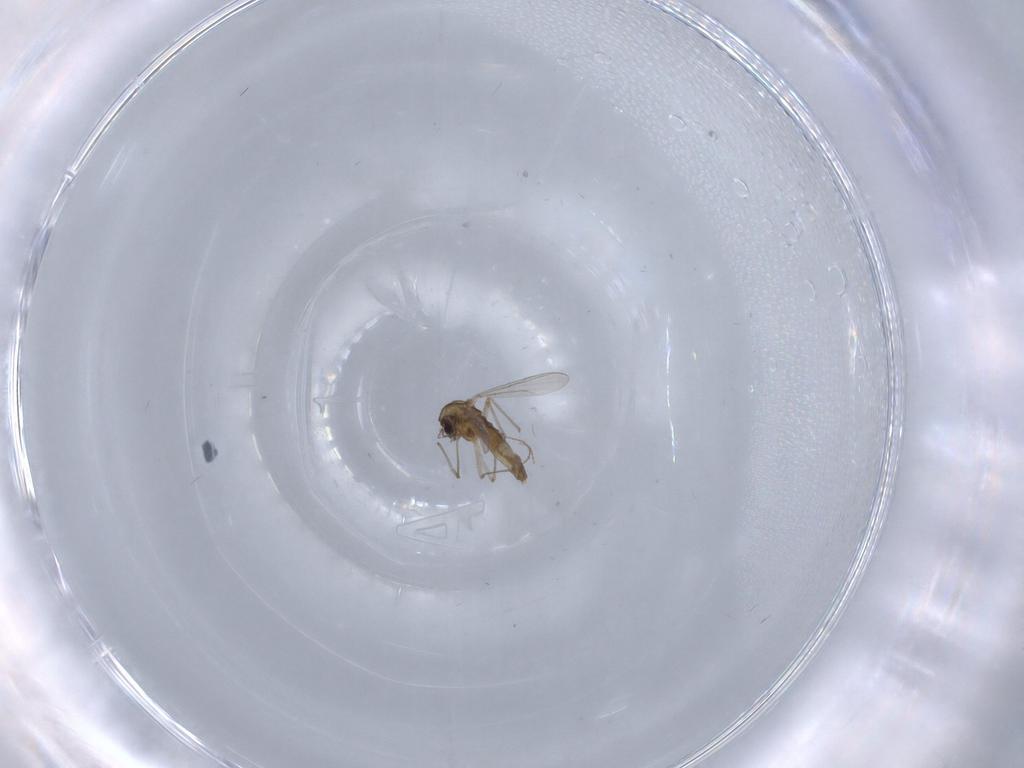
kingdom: Animalia
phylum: Arthropoda
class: Insecta
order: Diptera
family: Chironomidae
